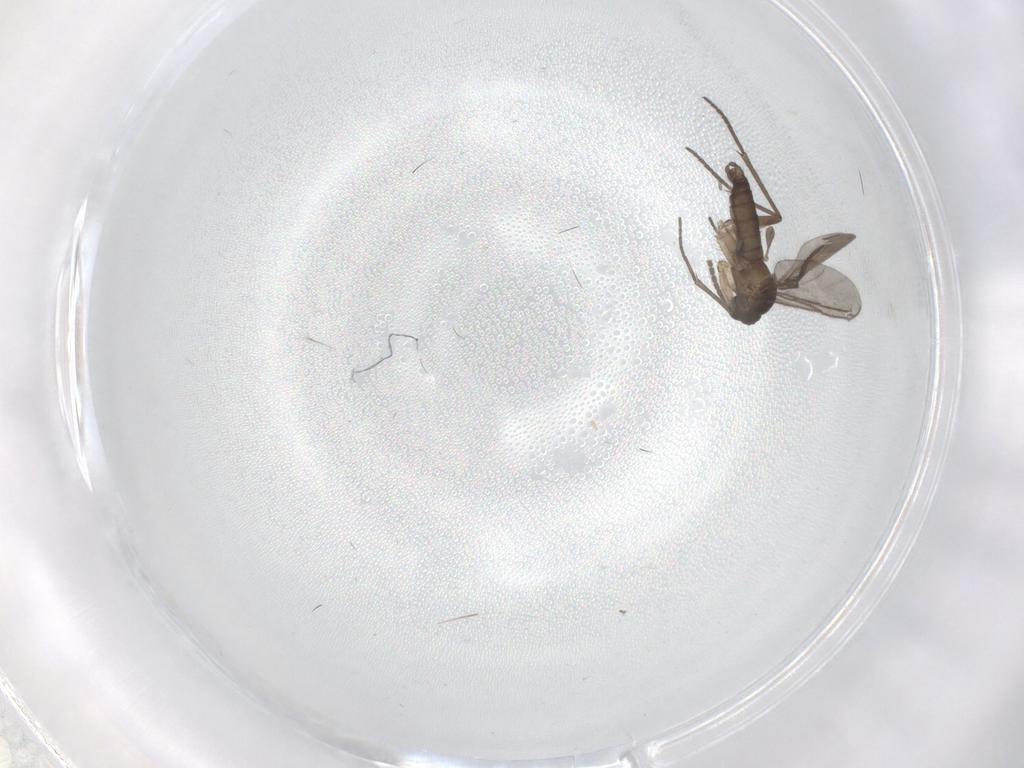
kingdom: Animalia
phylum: Arthropoda
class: Insecta
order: Diptera
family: Sciaridae
